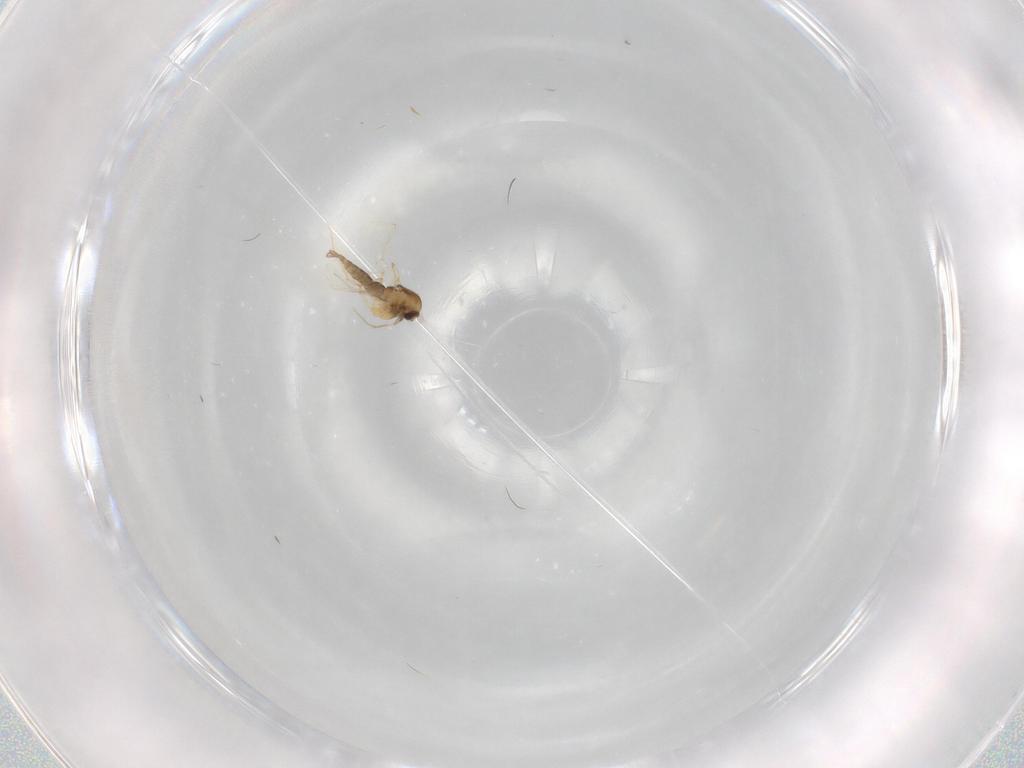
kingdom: Animalia
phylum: Arthropoda
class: Insecta
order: Diptera
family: Chironomidae
